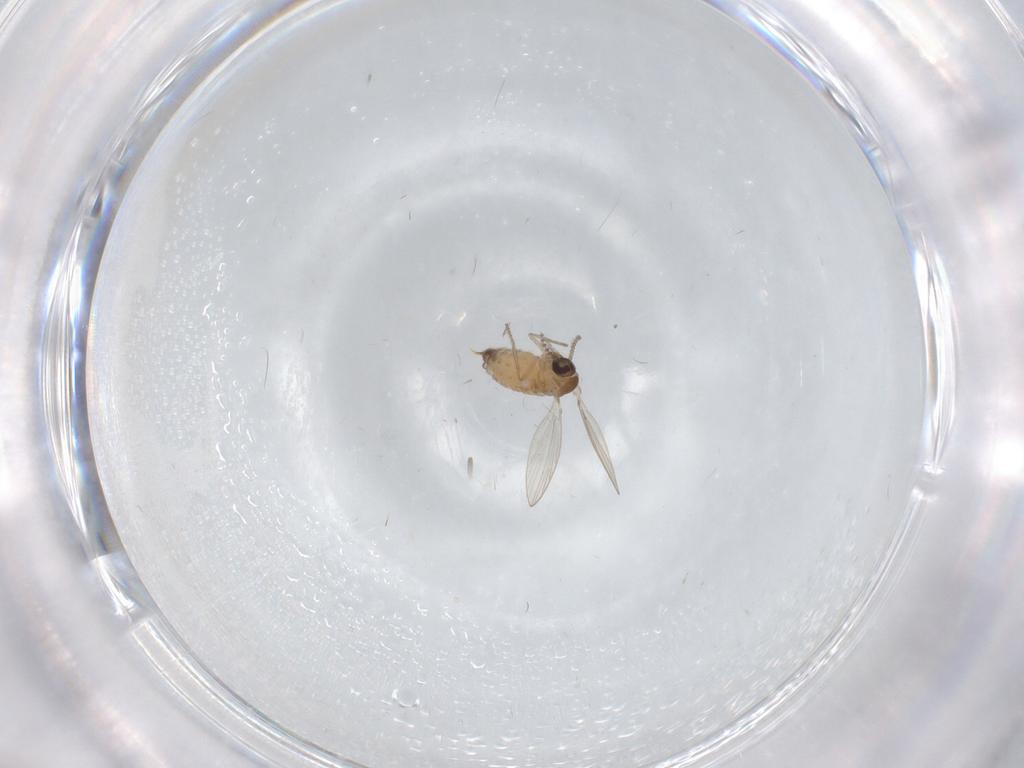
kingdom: Animalia
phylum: Arthropoda
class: Insecta
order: Diptera
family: Psychodidae
